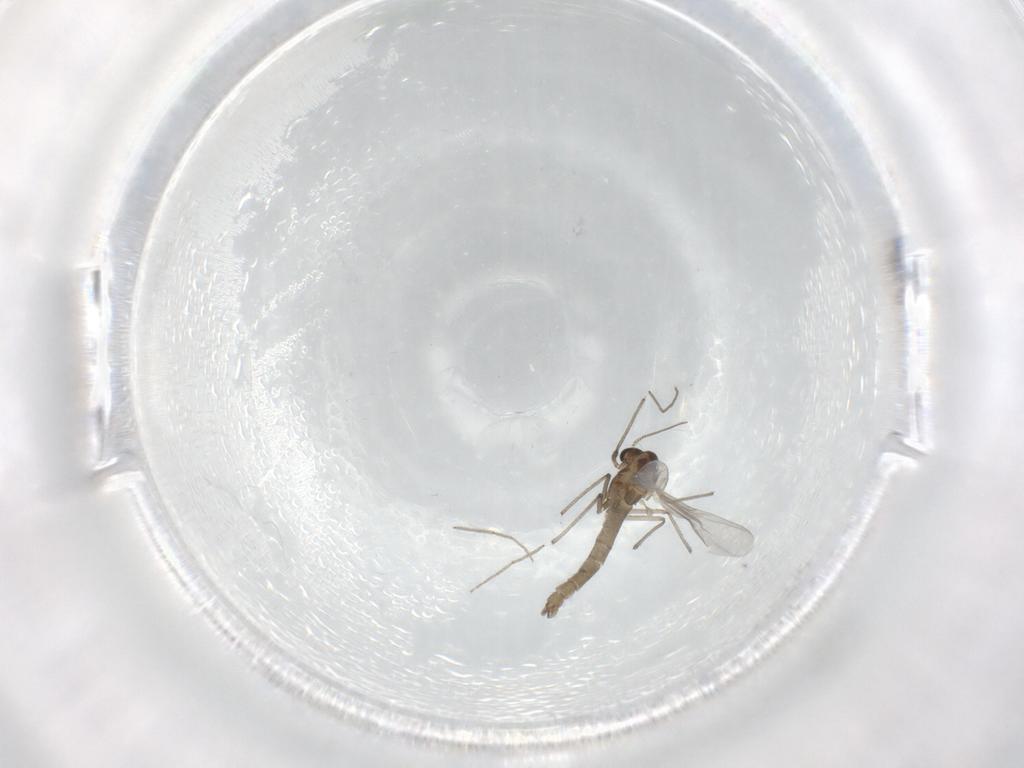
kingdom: Animalia
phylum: Arthropoda
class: Insecta
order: Diptera
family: Chironomidae
